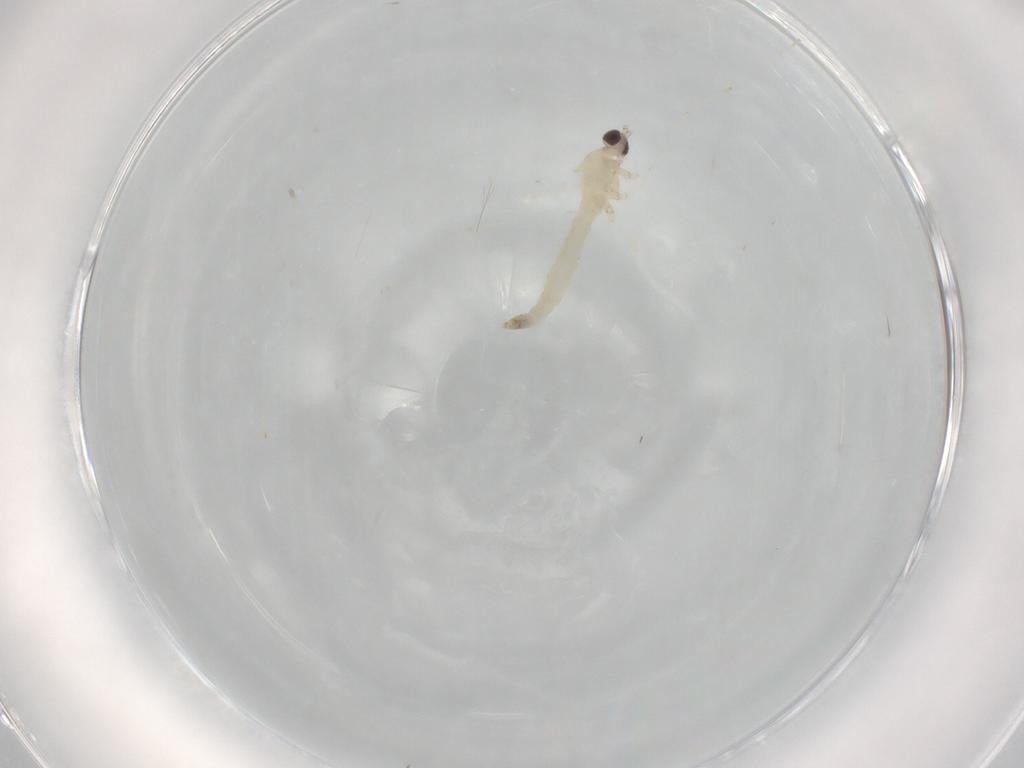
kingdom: Animalia
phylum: Arthropoda
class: Insecta
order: Diptera
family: Cecidomyiidae
